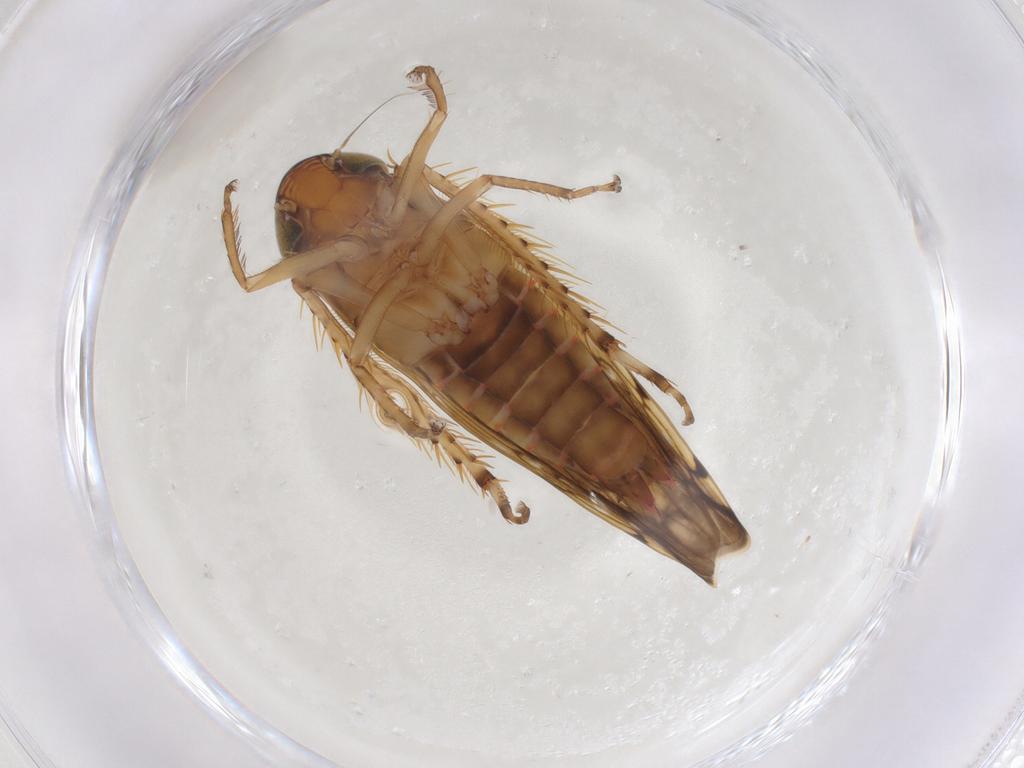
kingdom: Animalia
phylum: Arthropoda
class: Insecta
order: Hemiptera
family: Cicadellidae
